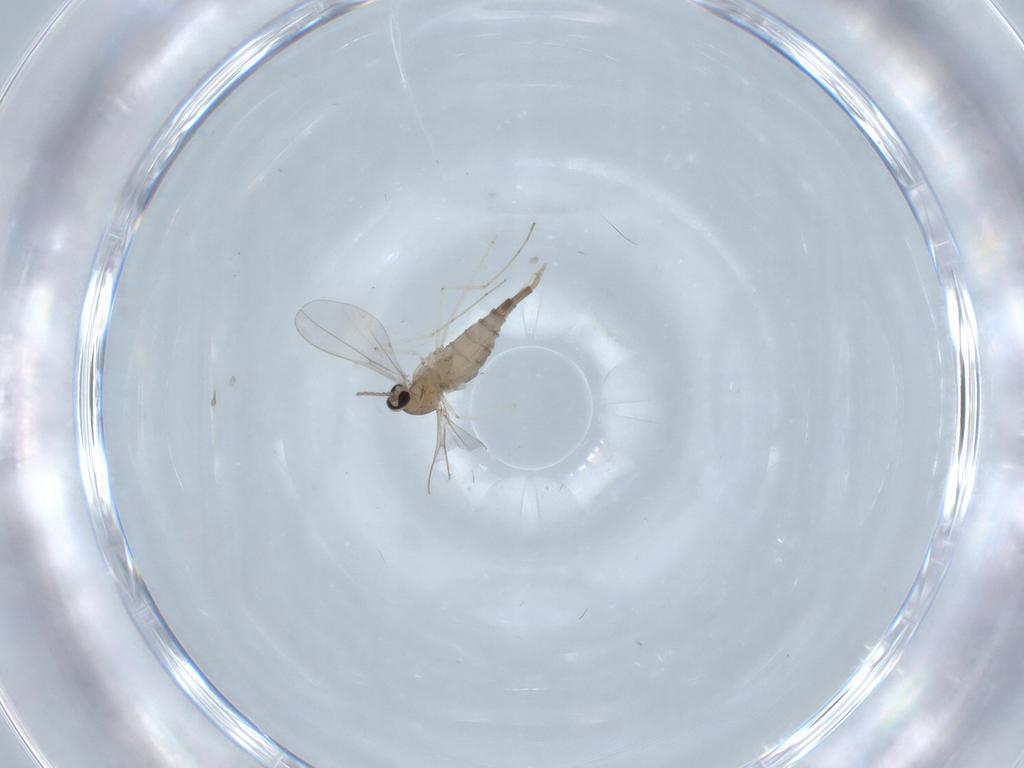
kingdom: Animalia
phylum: Arthropoda
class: Insecta
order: Diptera
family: Cecidomyiidae
